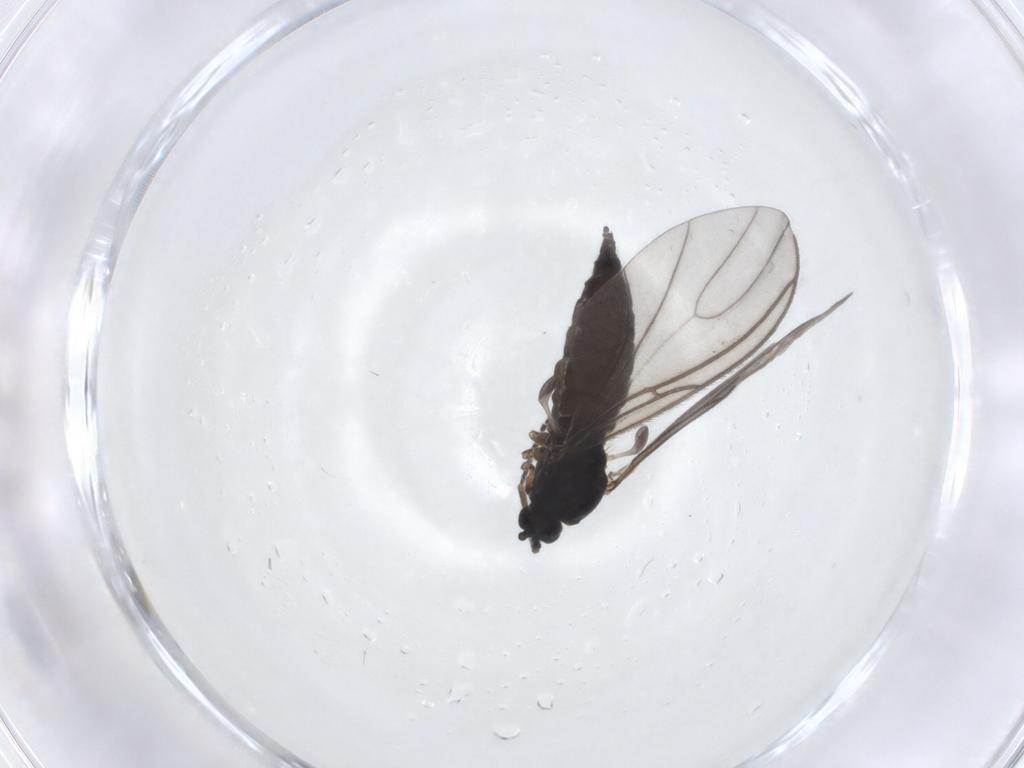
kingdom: Animalia
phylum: Arthropoda
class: Insecta
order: Diptera
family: Sciaridae
